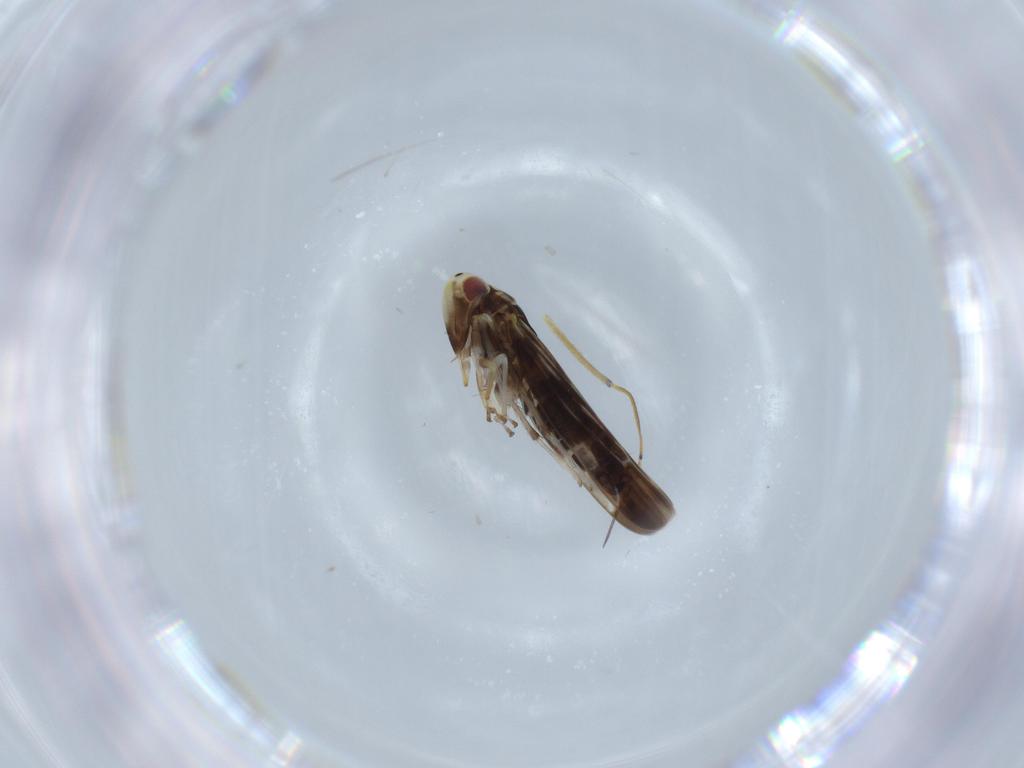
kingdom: Animalia
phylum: Arthropoda
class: Insecta
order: Hemiptera
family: Cicadellidae
